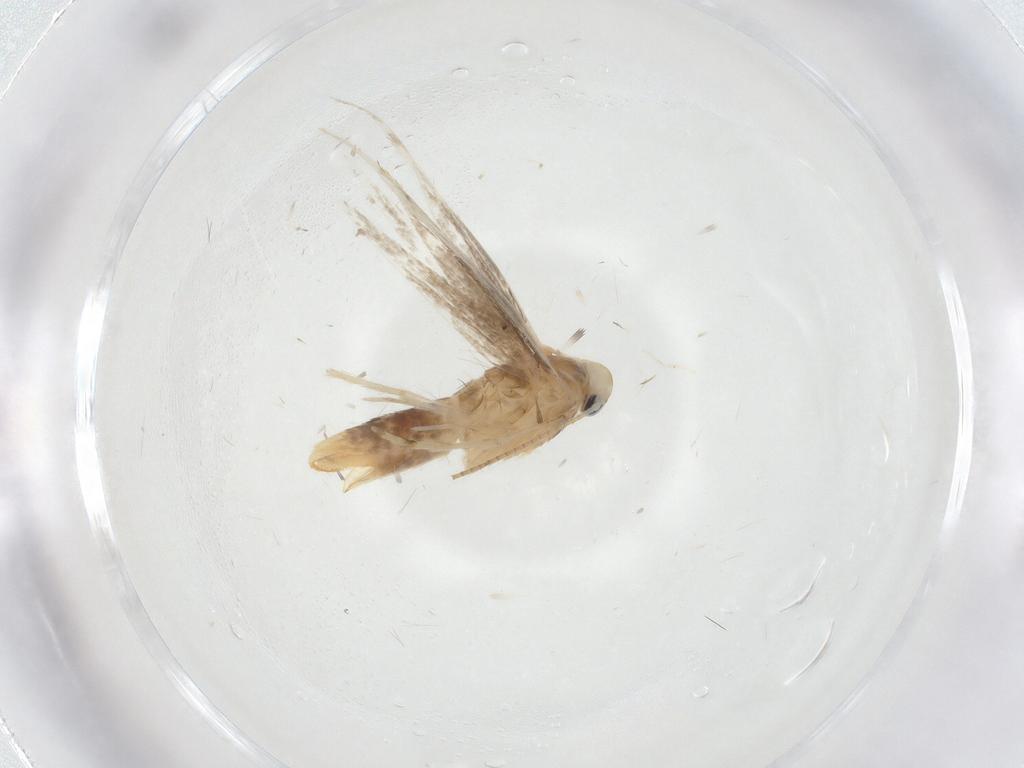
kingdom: Animalia
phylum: Arthropoda
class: Insecta
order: Lepidoptera
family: Gracillariidae
